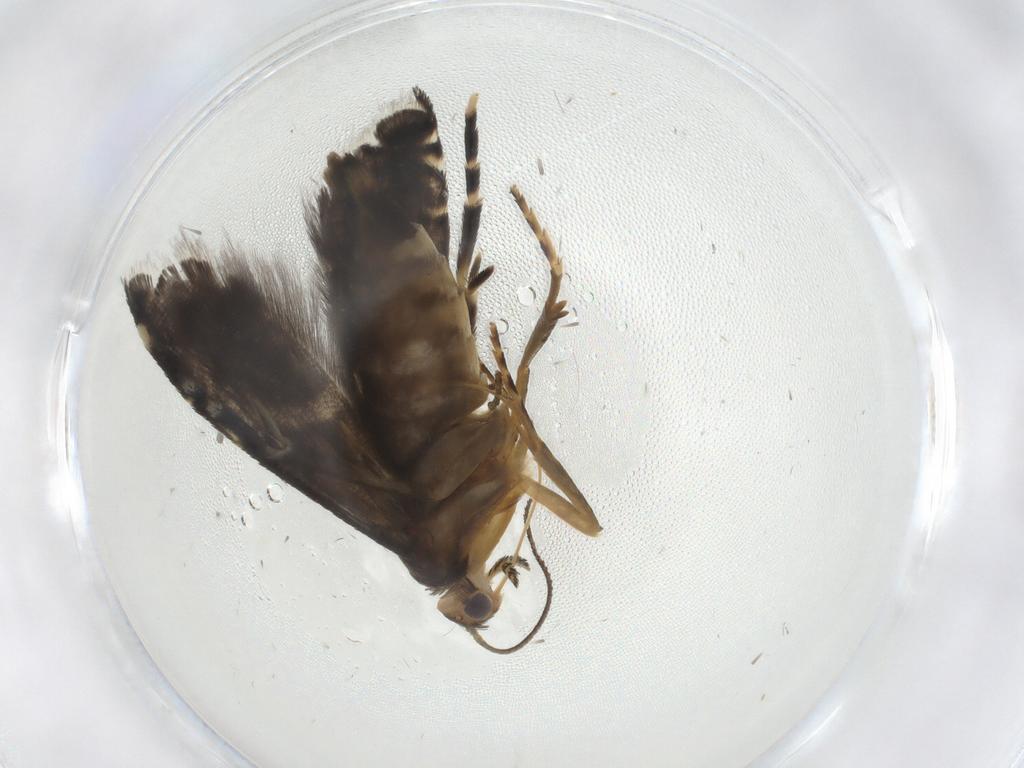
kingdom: Animalia
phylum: Arthropoda
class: Insecta
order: Lepidoptera
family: Glyphipterigidae
